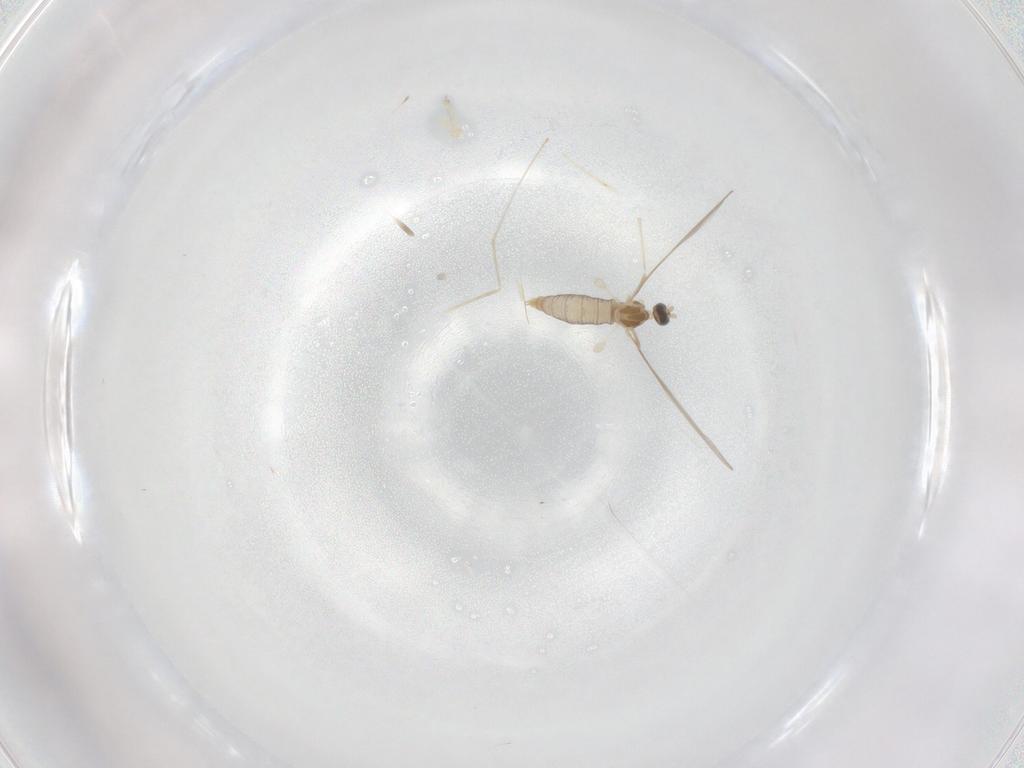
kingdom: Animalia
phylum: Arthropoda
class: Insecta
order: Diptera
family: Cecidomyiidae
